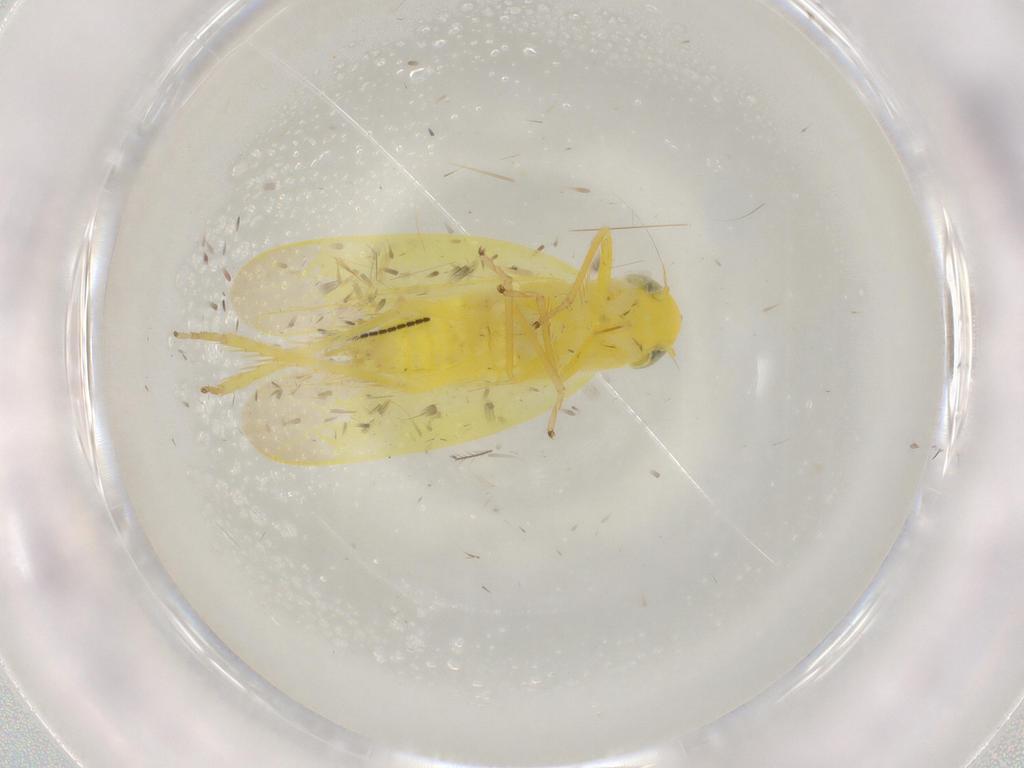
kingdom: Animalia
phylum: Arthropoda
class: Insecta
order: Hemiptera
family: Cicadellidae
